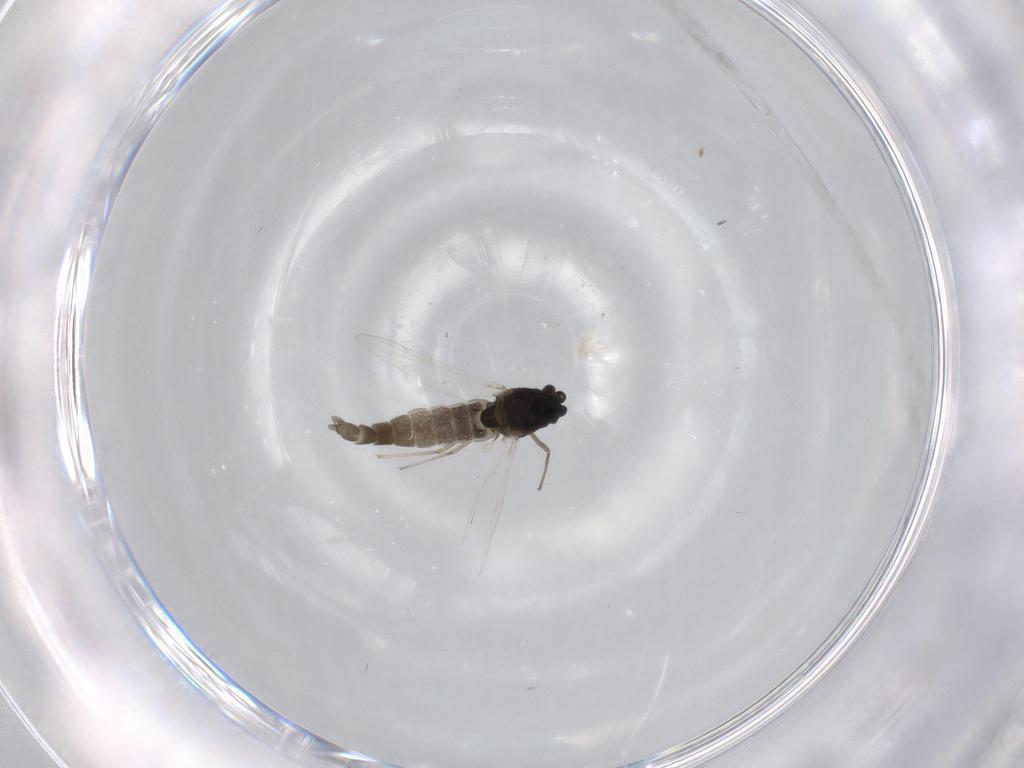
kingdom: Animalia
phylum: Arthropoda
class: Insecta
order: Diptera
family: Chironomidae
